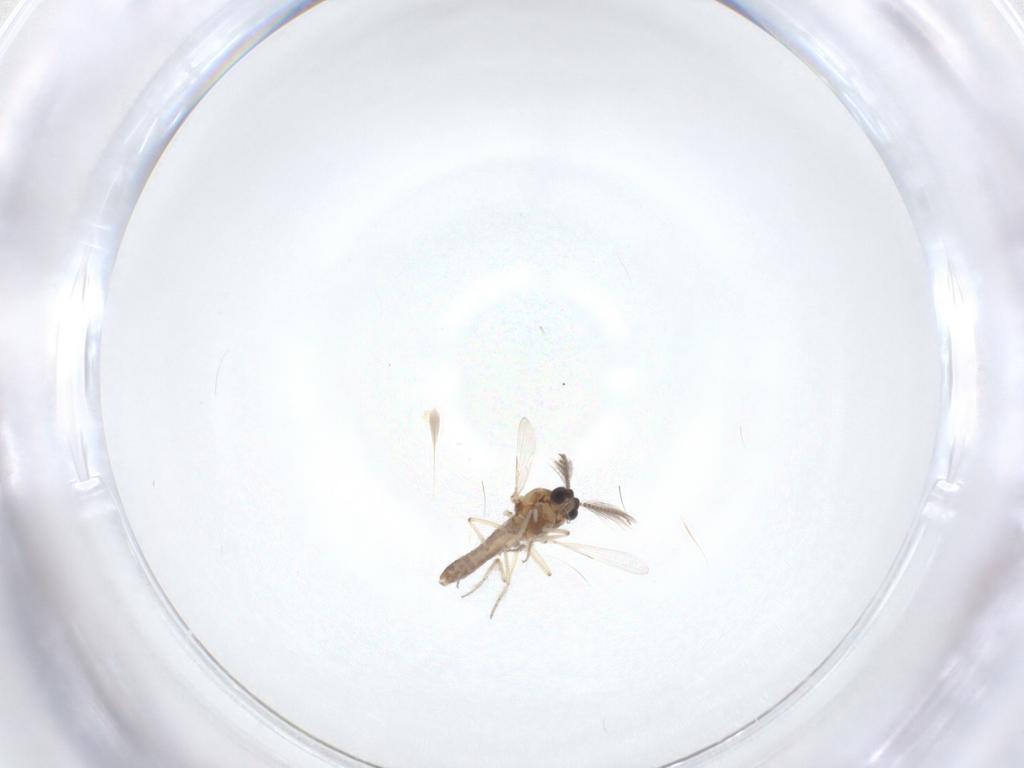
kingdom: Animalia
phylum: Arthropoda
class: Insecta
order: Diptera
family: Ceratopogonidae
